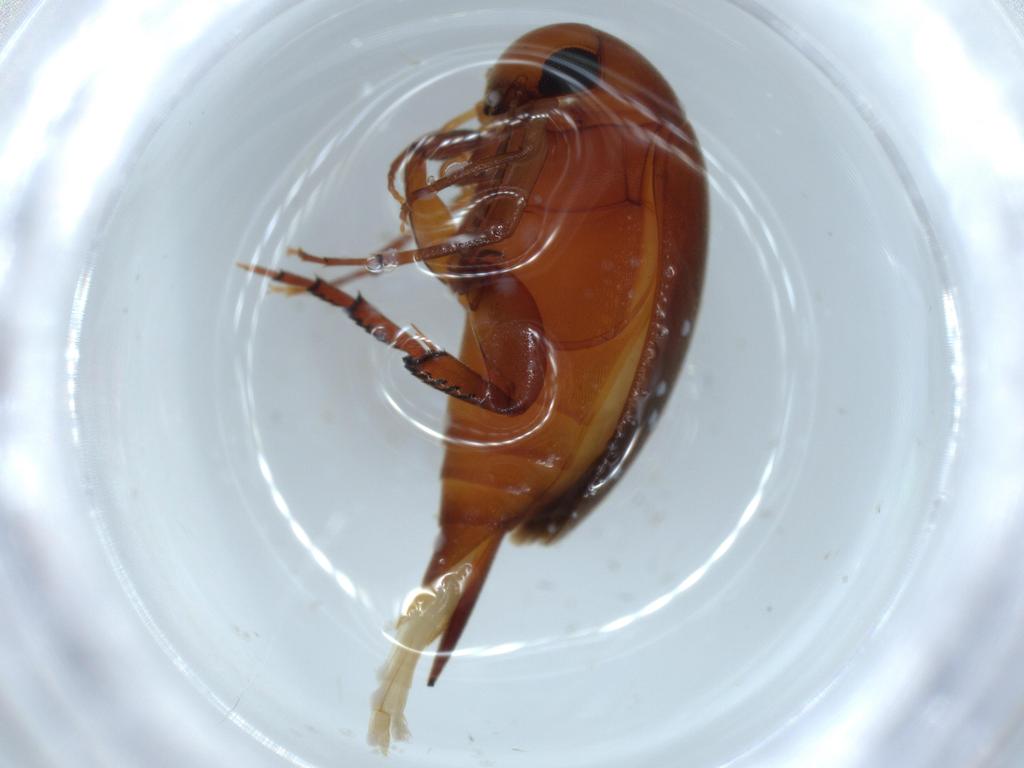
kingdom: Animalia
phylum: Arthropoda
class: Insecta
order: Coleoptera
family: Mordellidae
